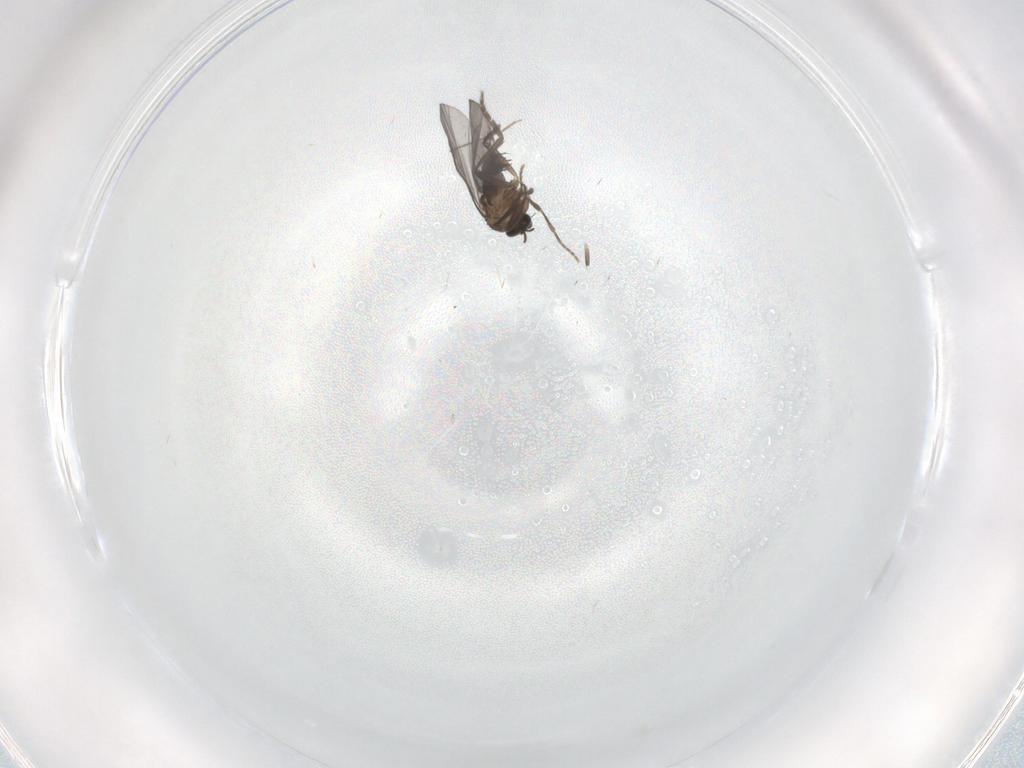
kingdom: Animalia
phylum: Arthropoda
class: Insecta
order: Diptera
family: Phoridae
